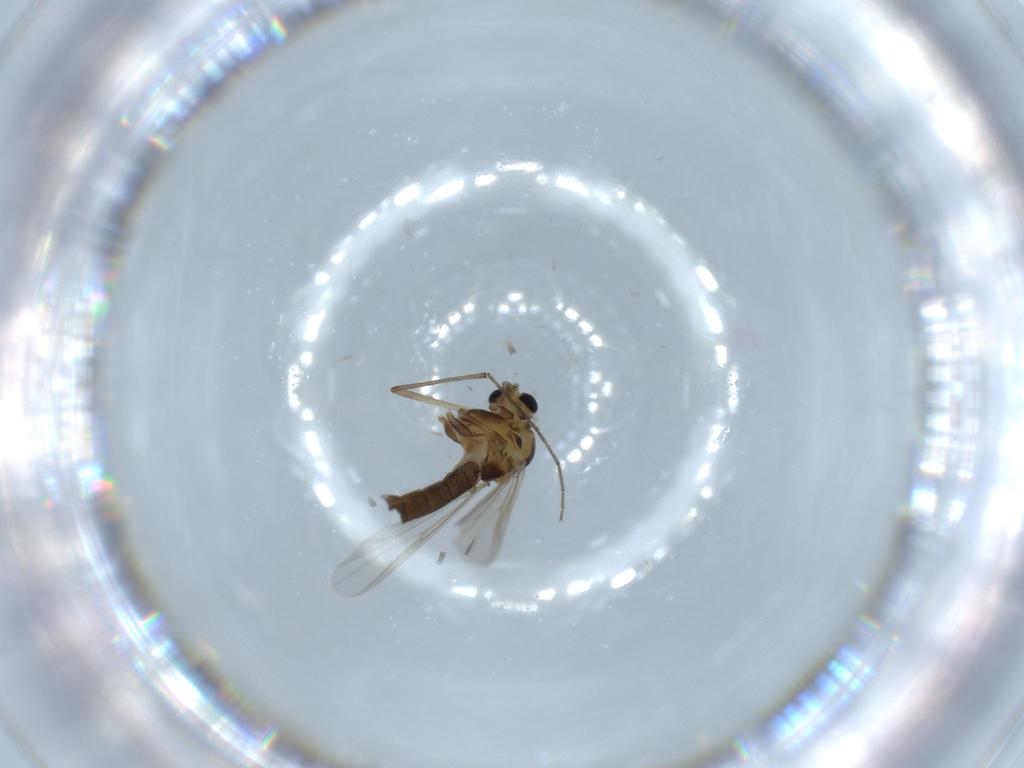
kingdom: Animalia
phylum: Arthropoda
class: Insecta
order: Diptera
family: Chironomidae
